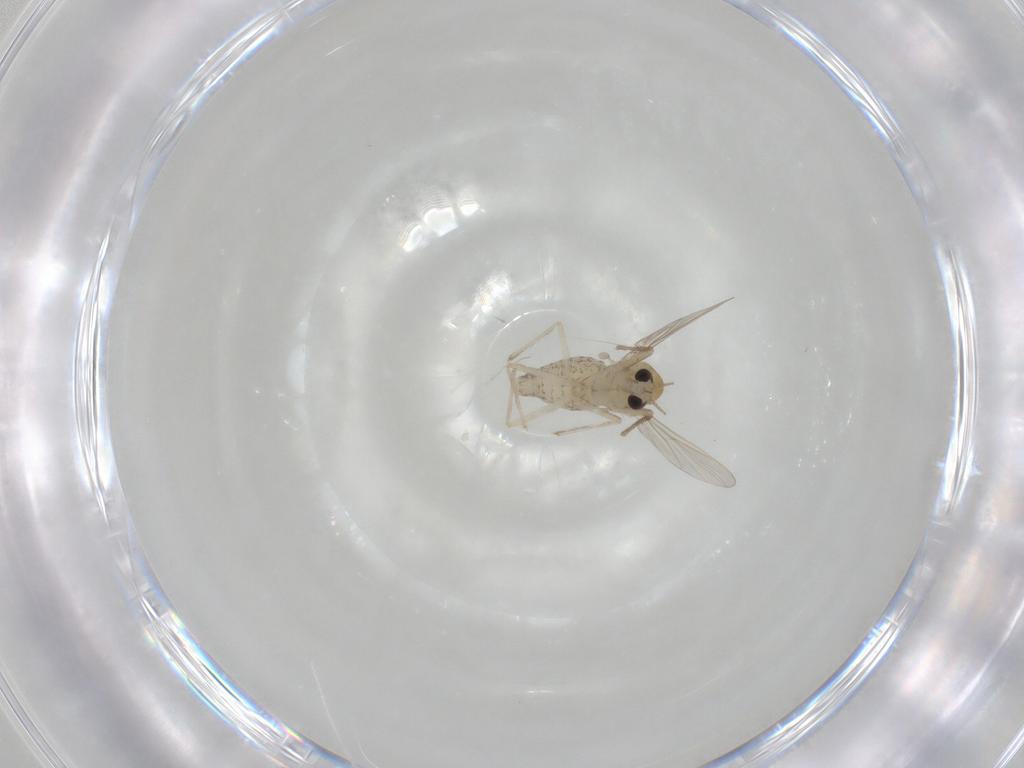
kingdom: Animalia
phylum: Arthropoda
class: Insecta
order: Diptera
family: Chironomidae
